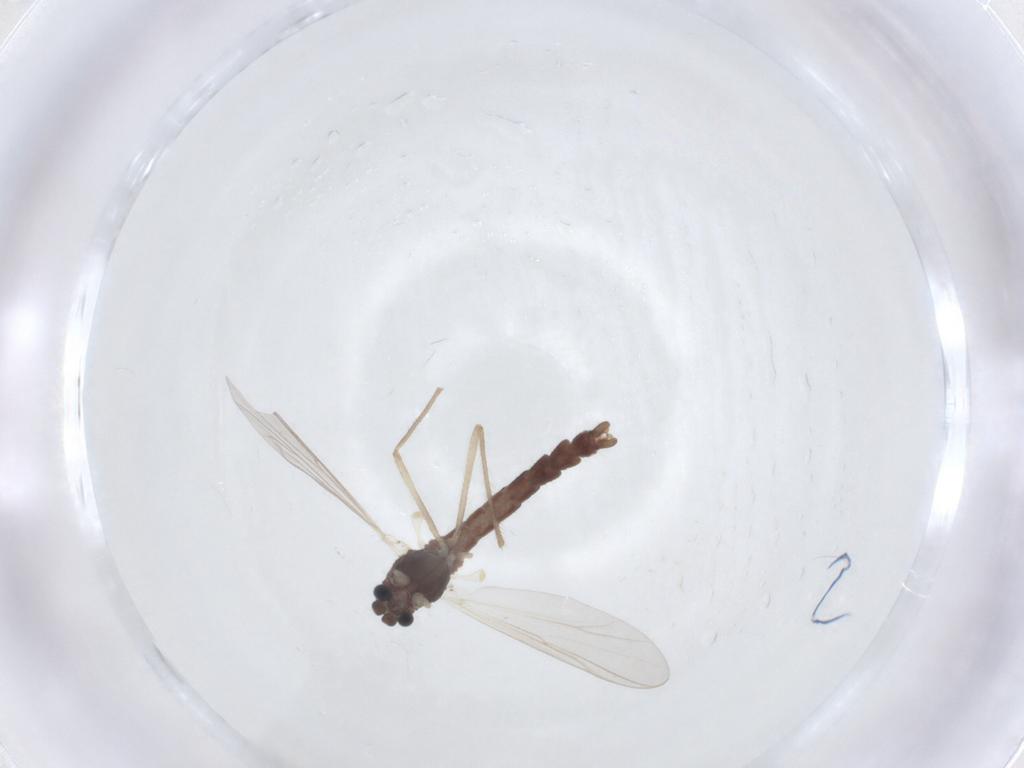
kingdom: Animalia
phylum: Arthropoda
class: Insecta
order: Diptera
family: Chironomidae
